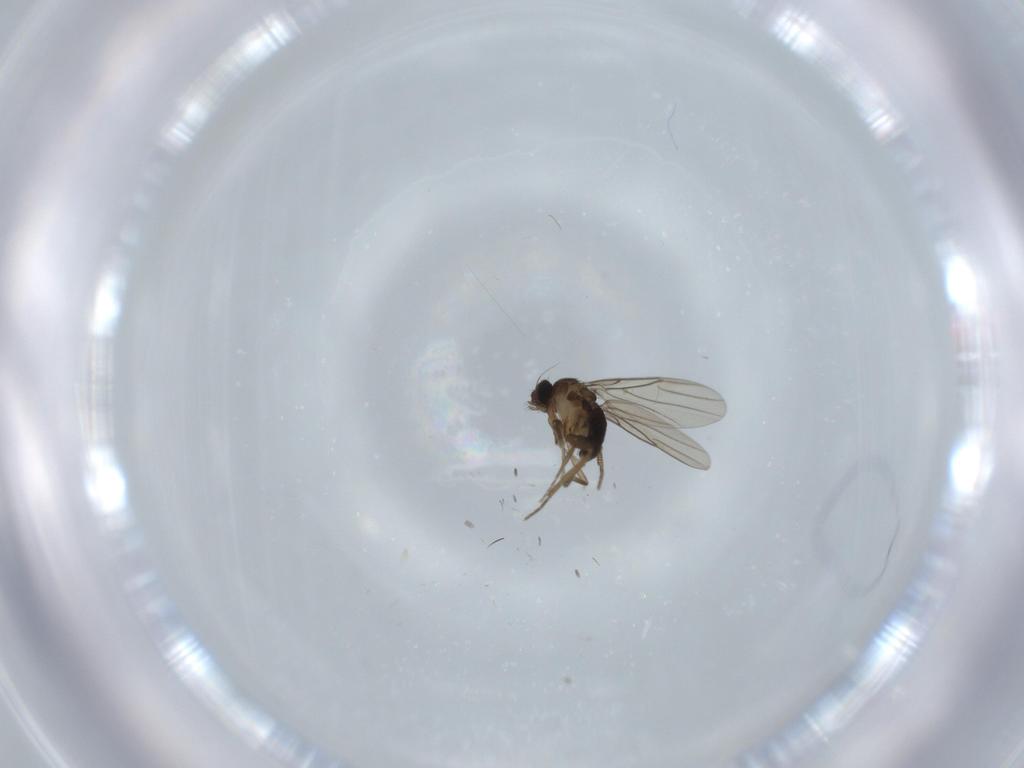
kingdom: Animalia
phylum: Arthropoda
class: Insecta
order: Diptera
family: Phoridae
